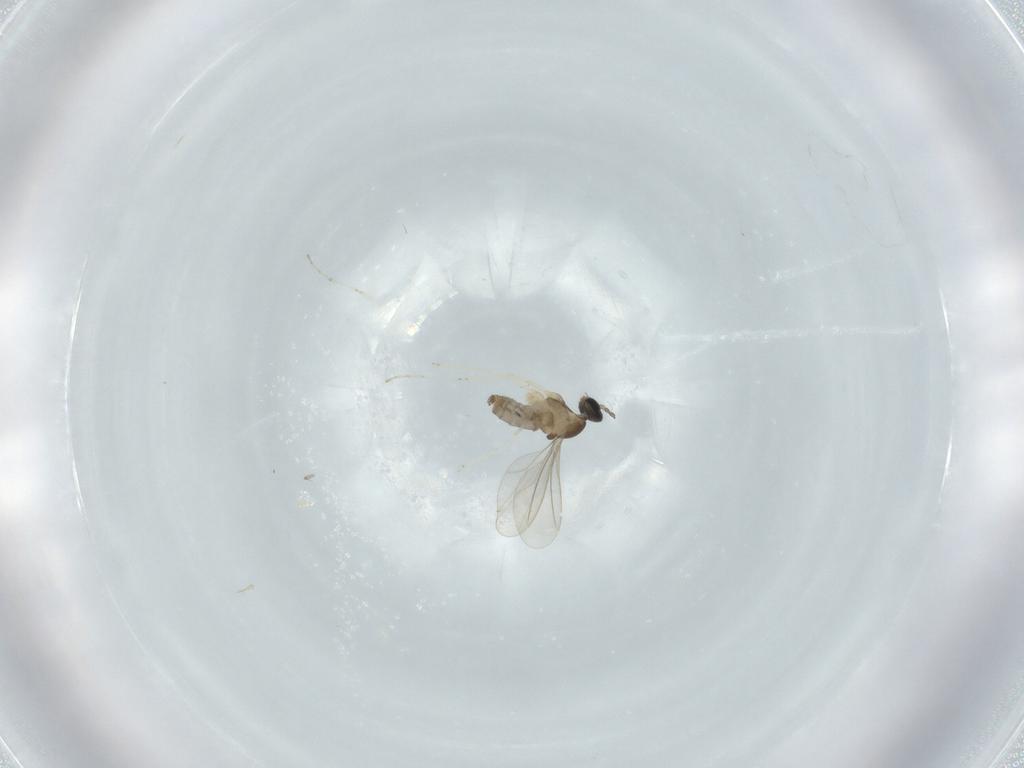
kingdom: Animalia
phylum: Arthropoda
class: Insecta
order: Diptera
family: Cecidomyiidae
